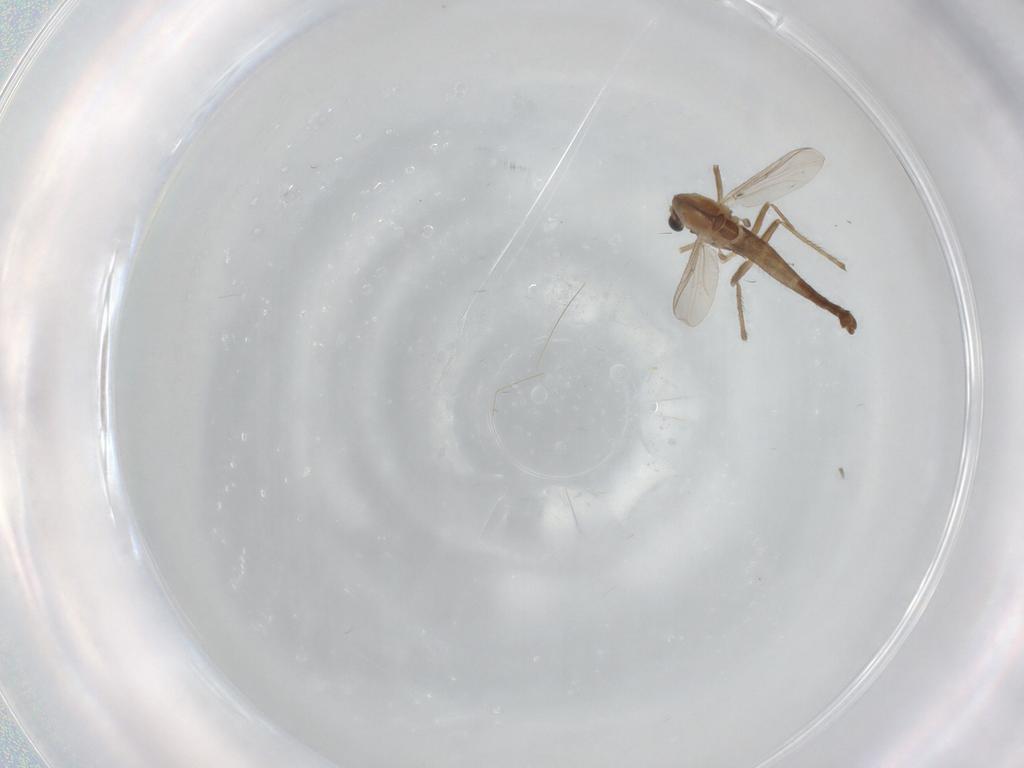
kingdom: Animalia
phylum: Arthropoda
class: Insecta
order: Diptera
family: Chironomidae
